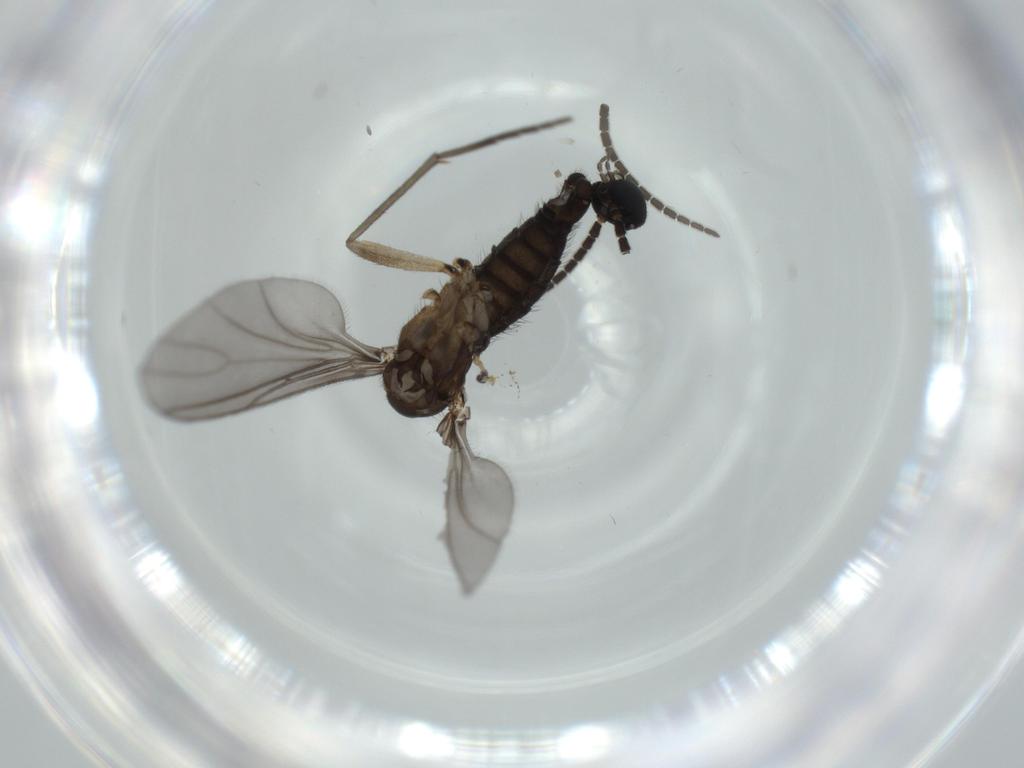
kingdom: Animalia
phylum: Arthropoda
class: Insecta
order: Diptera
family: Sciaridae
